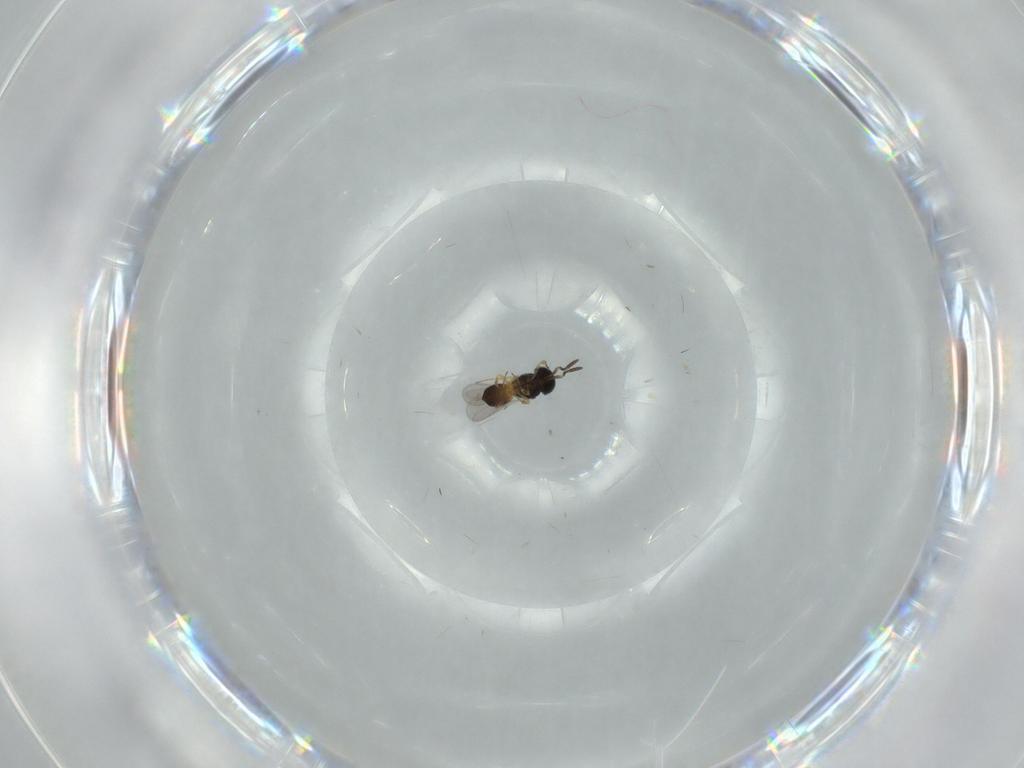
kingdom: Animalia
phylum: Arthropoda
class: Insecta
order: Hymenoptera
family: Scelionidae
